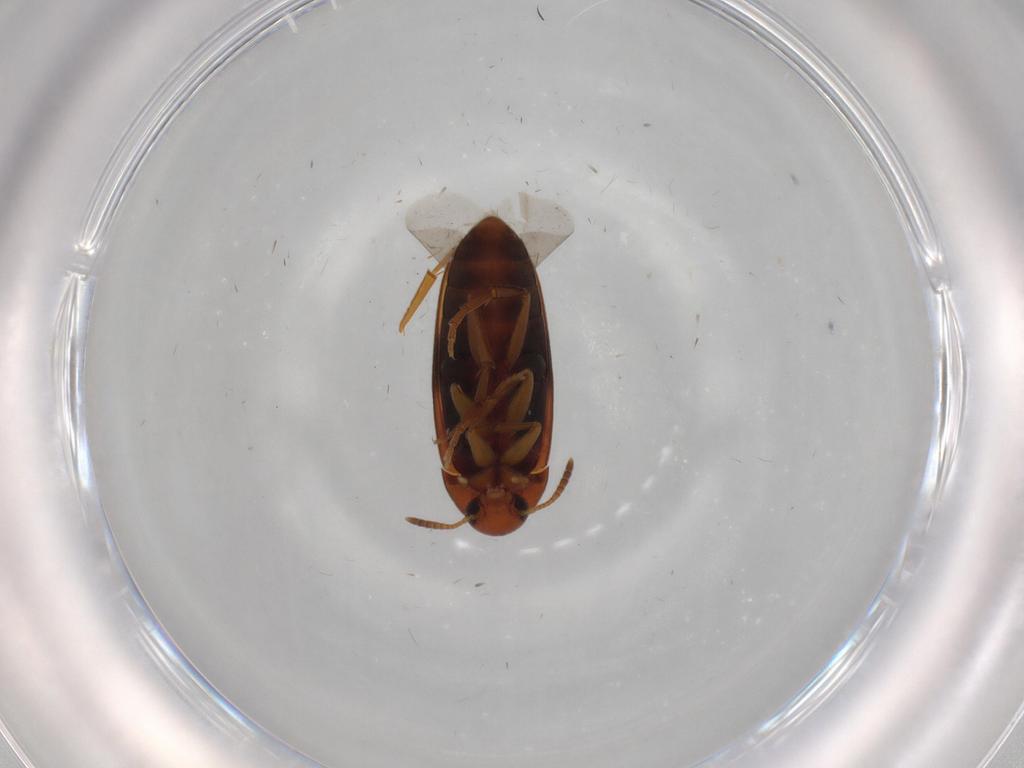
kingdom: Animalia
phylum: Arthropoda
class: Insecta
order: Coleoptera
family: Scraptiidae
